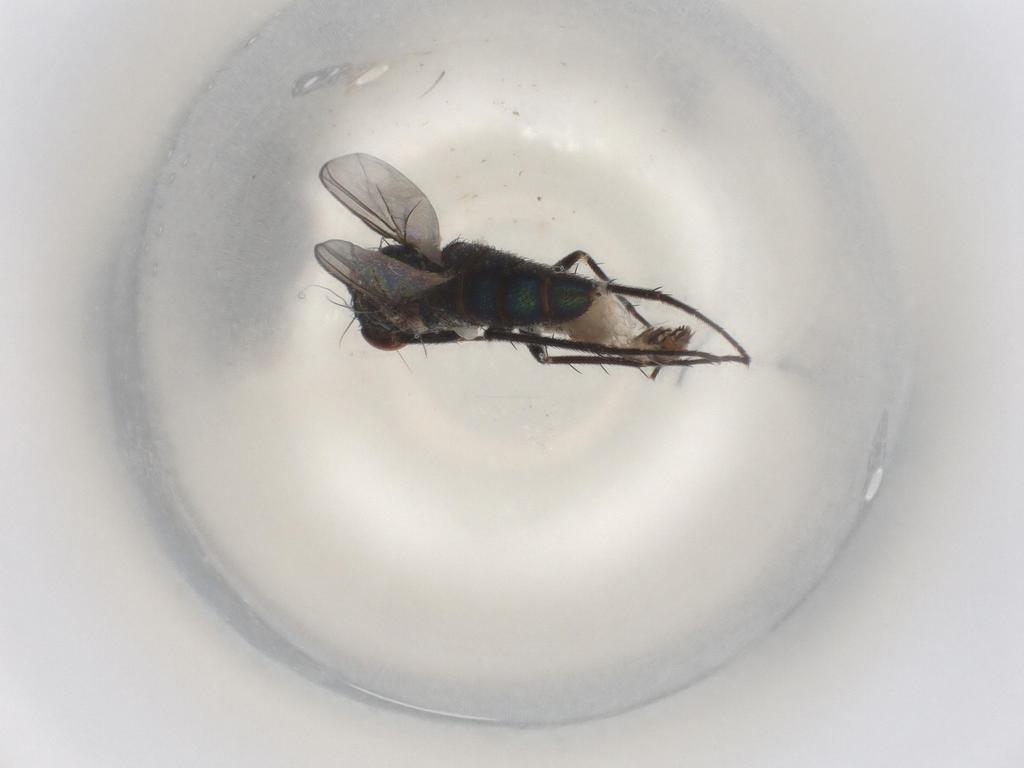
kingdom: Animalia
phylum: Arthropoda
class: Insecta
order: Diptera
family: Dolichopodidae
